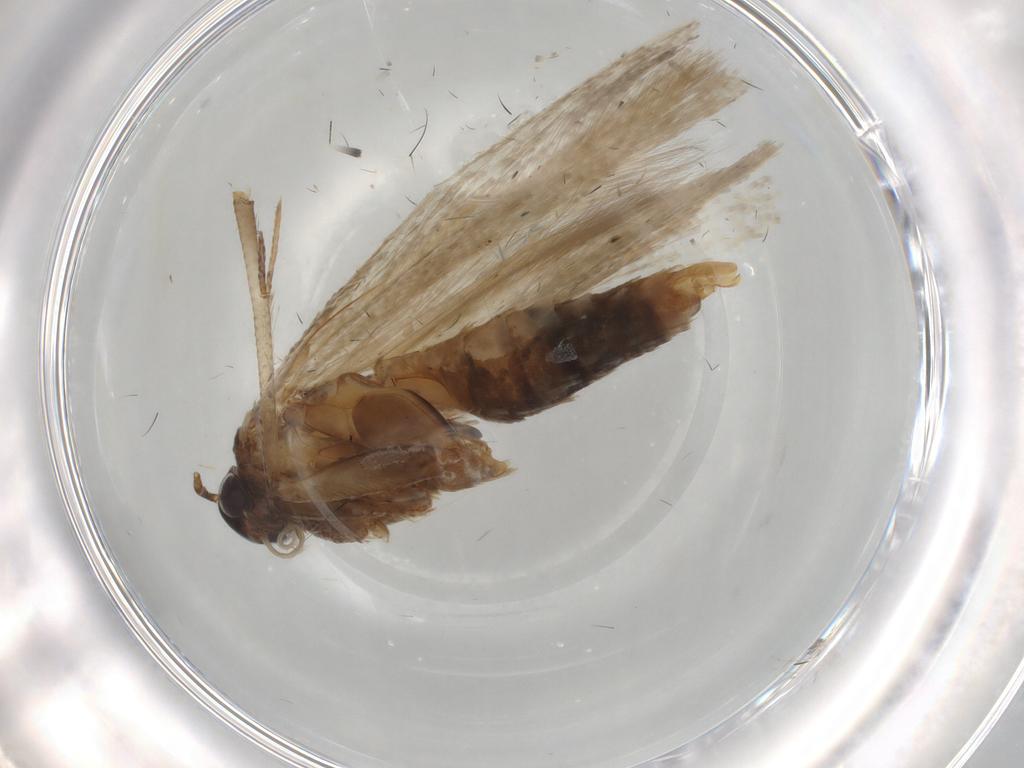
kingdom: Animalia
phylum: Arthropoda
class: Insecta
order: Lepidoptera
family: Gelechiidae
